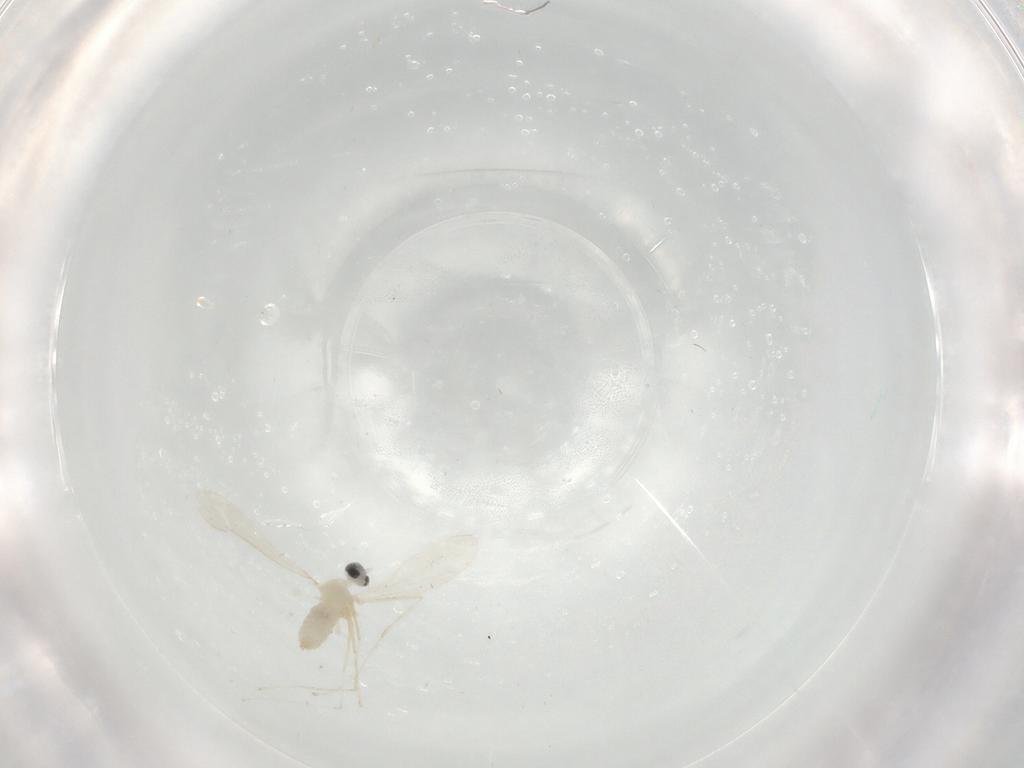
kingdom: Animalia
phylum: Arthropoda
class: Insecta
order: Diptera
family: Cecidomyiidae
